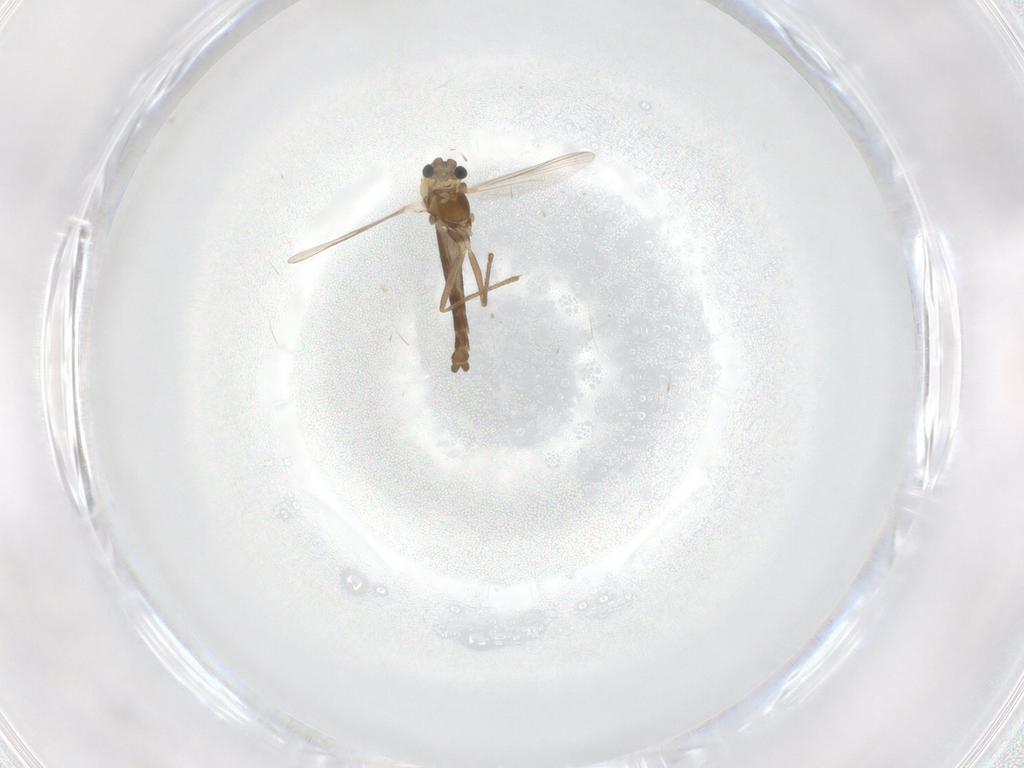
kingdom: Animalia
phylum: Arthropoda
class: Insecta
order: Diptera
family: Chironomidae
